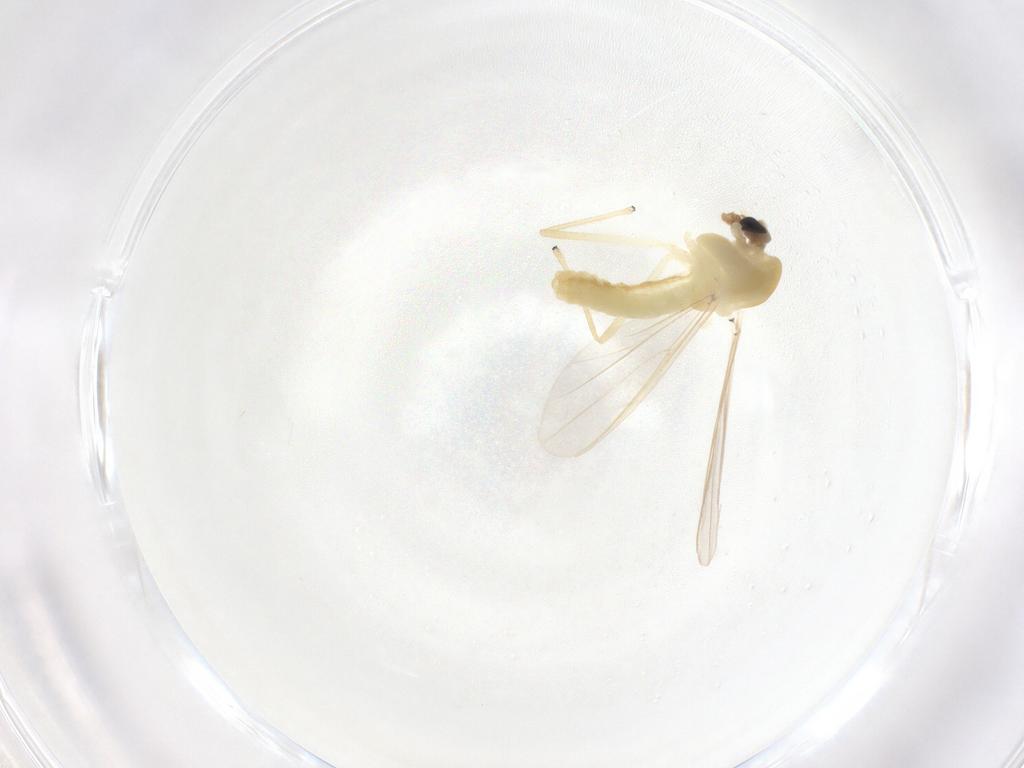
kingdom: Animalia
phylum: Arthropoda
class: Insecta
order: Diptera
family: Chironomidae
